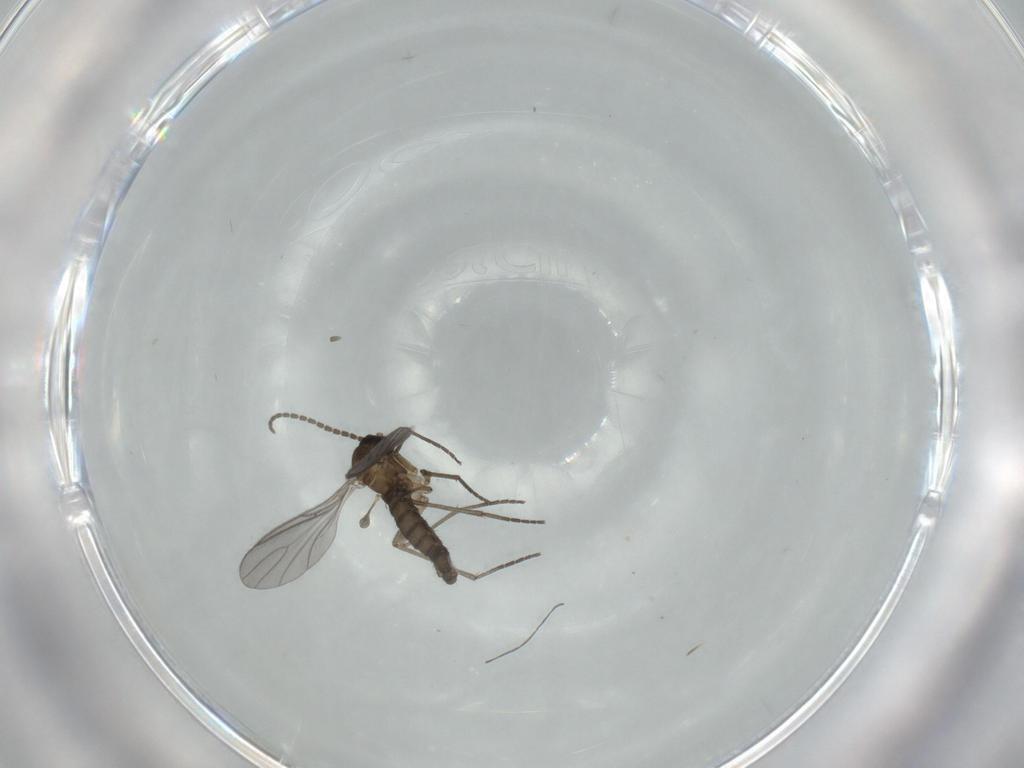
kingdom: Animalia
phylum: Arthropoda
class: Insecta
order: Diptera
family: Sciaridae
